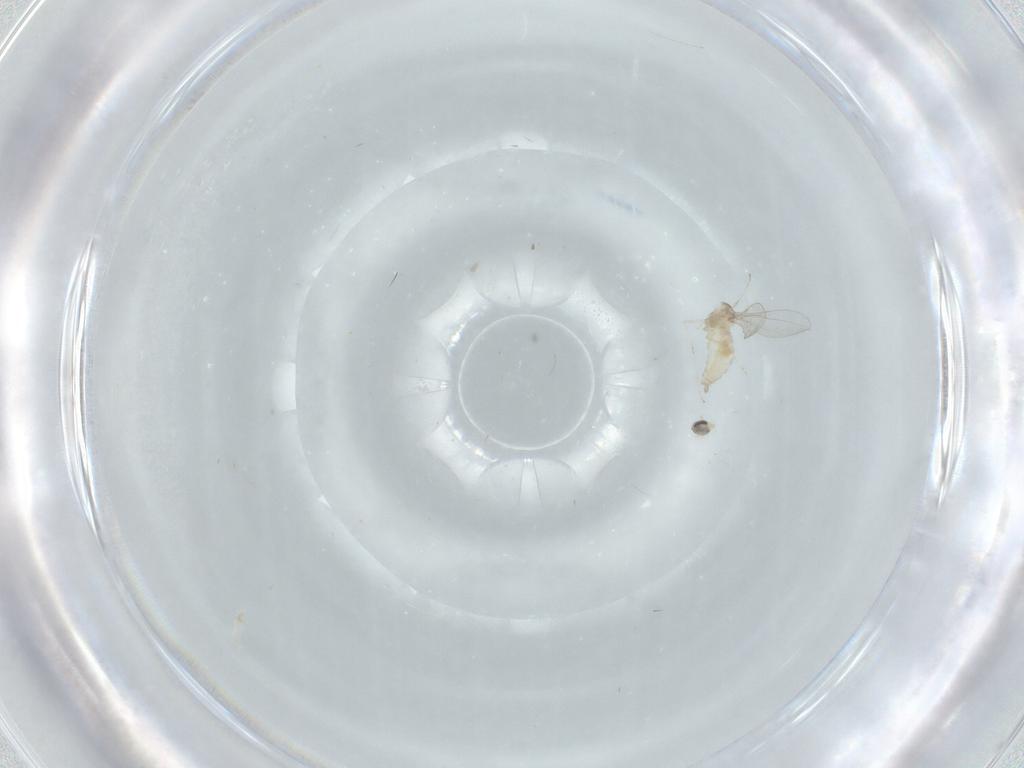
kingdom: Animalia
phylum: Arthropoda
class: Insecta
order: Diptera
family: Cecidomyiidae
